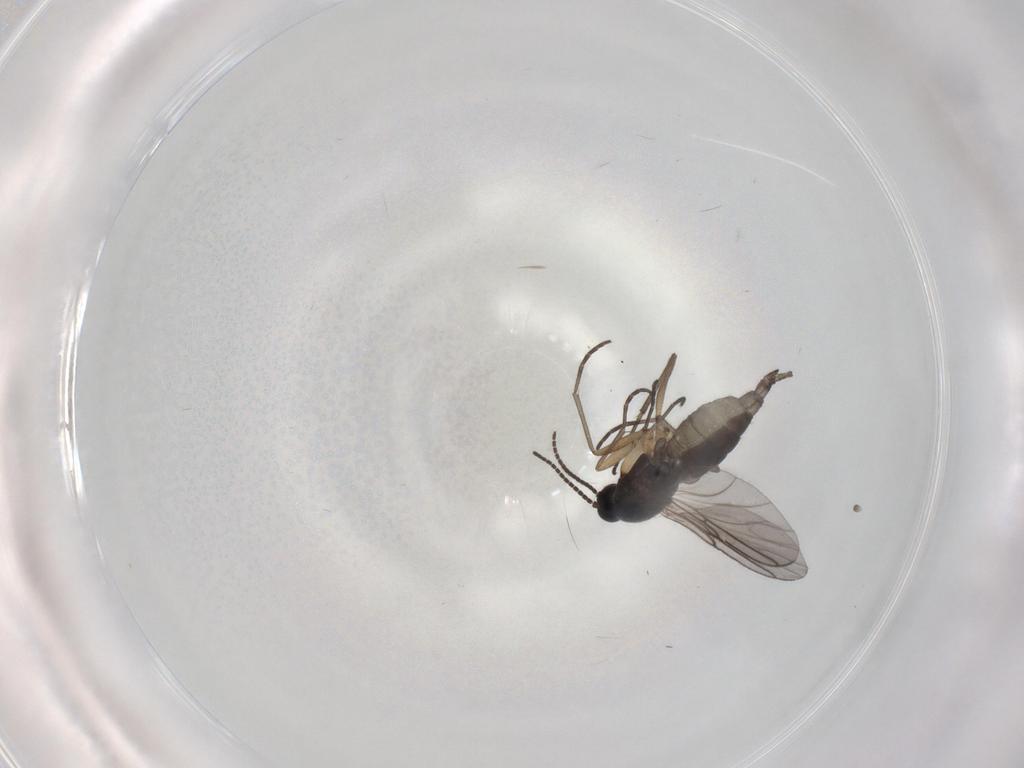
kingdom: Animalia
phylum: Arthropoda
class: Insecta
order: Diptera
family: Sciaridae
